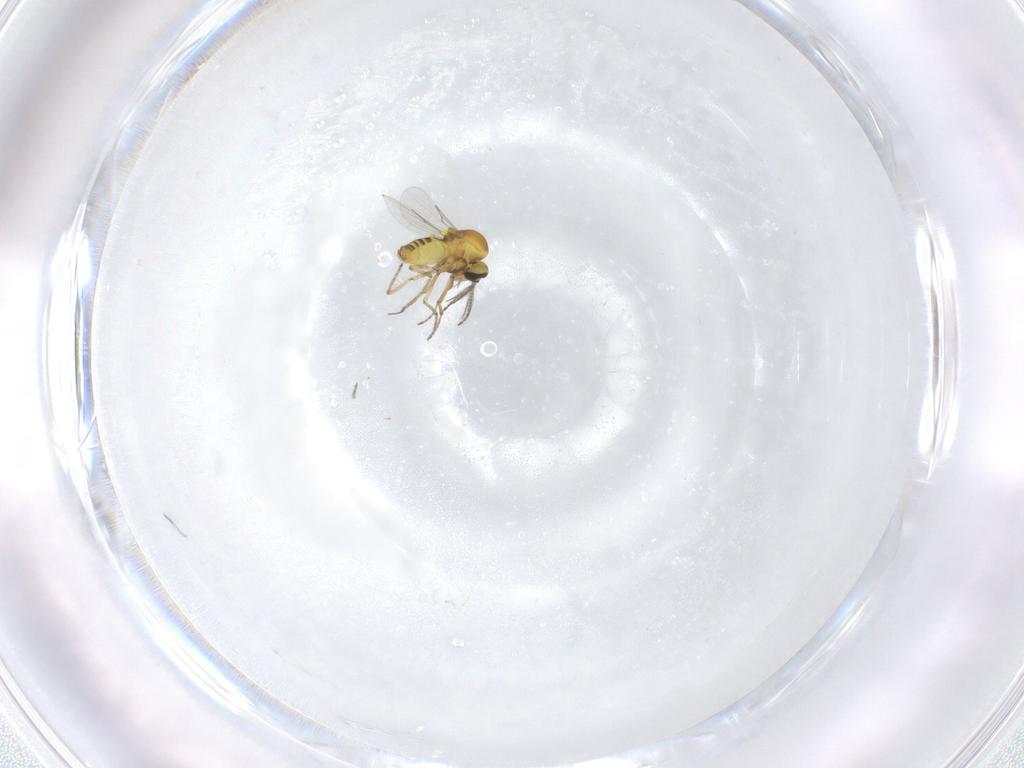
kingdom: Animalia
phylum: Arthropoda
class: Insecta
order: Diptera
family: Ceratopogonidae
